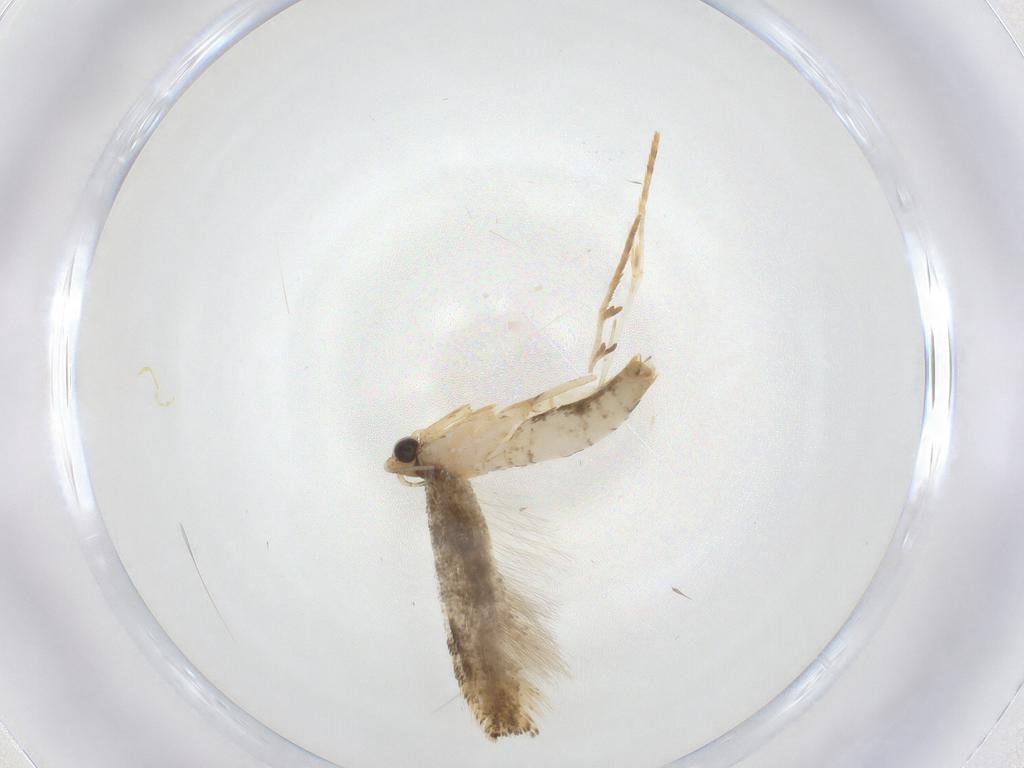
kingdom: Animalia
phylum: Arthropoda
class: Insecta
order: Lepidoptera
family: Tineidae
